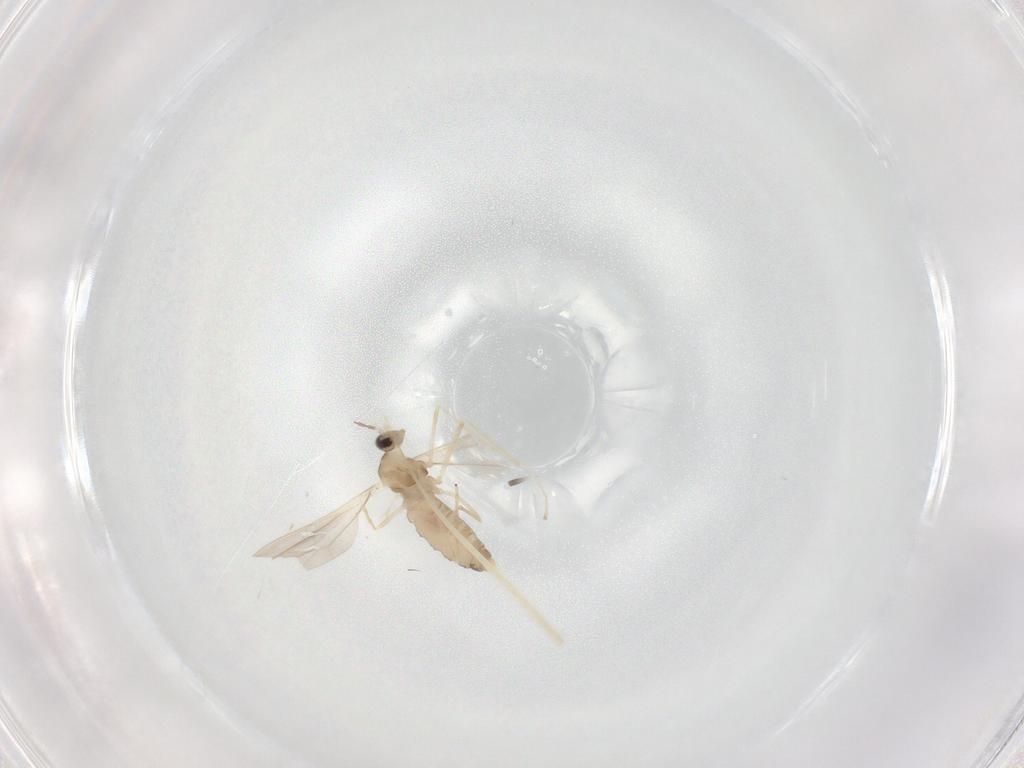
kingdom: Animalia
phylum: Arthropoda
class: Insecta
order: Diptera
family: Cecidomyiidae
